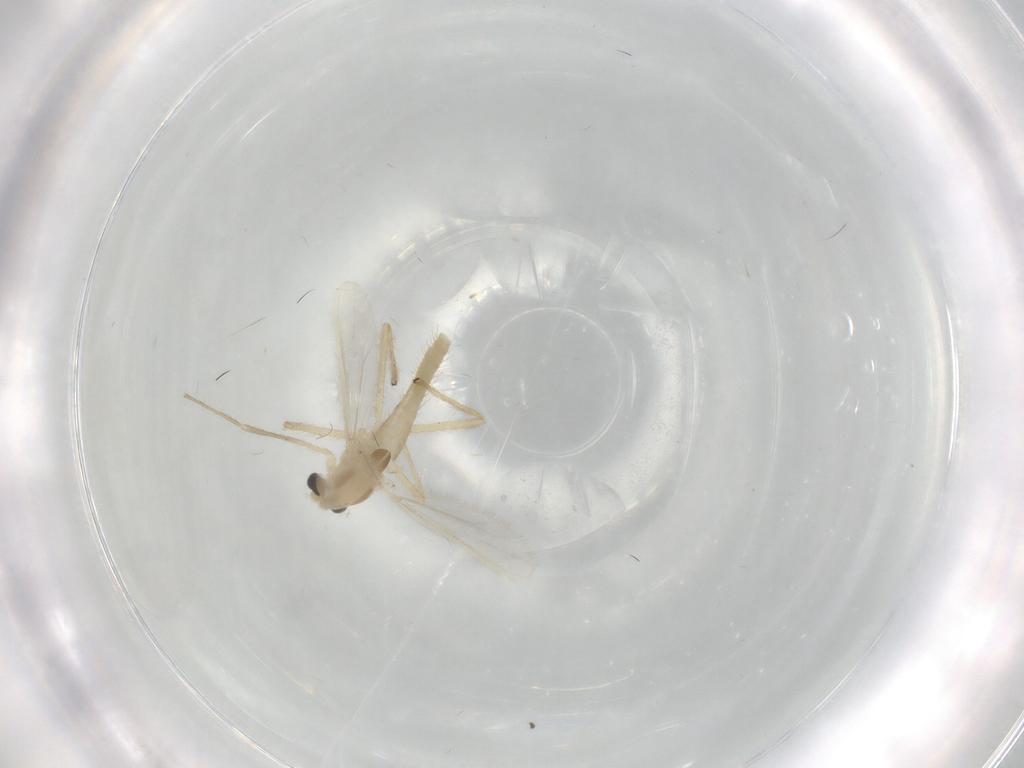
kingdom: Animalia
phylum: Arthropoda
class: Insecta
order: Diptera
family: Chironomidae
